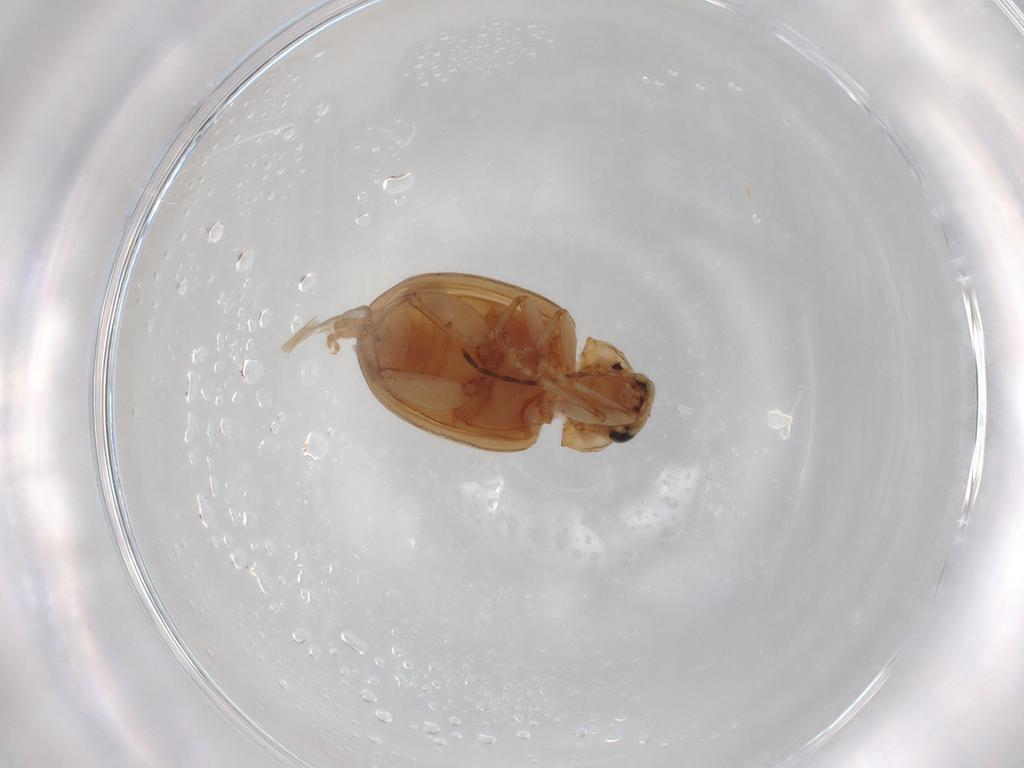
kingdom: Animalia
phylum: Arthropoda
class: Insecta
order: Coleoptera
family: Chrysomelidae
